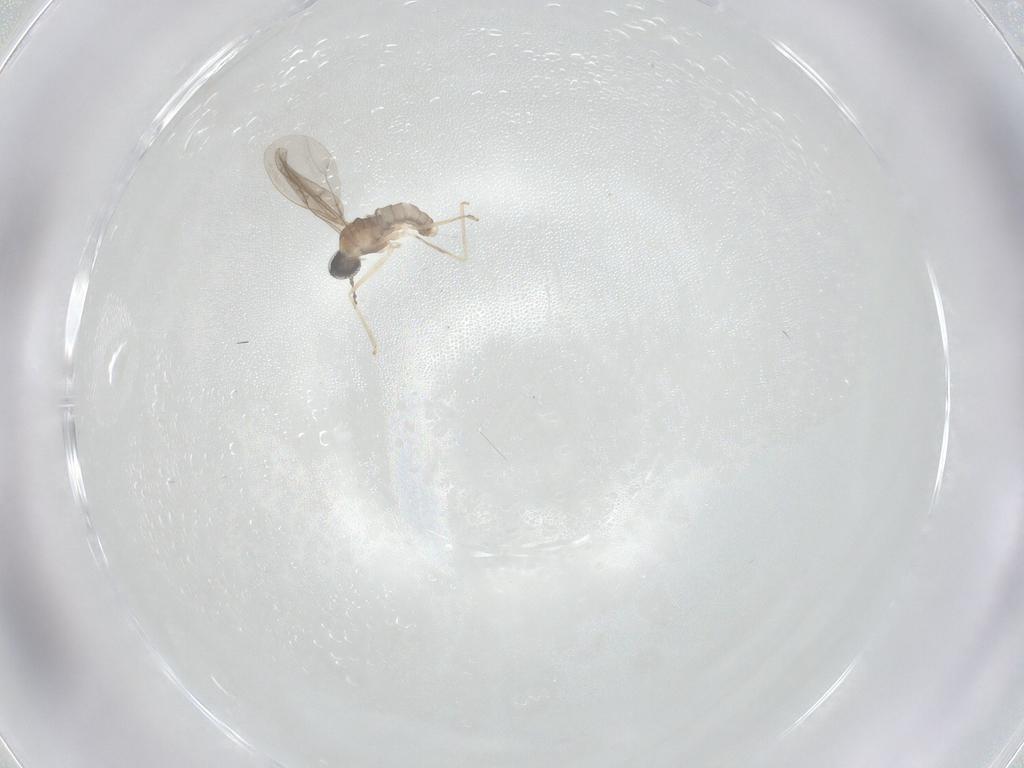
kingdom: Animalia
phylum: Arthropoda
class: Insecta
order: Diptera
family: Cecidomyiidae
